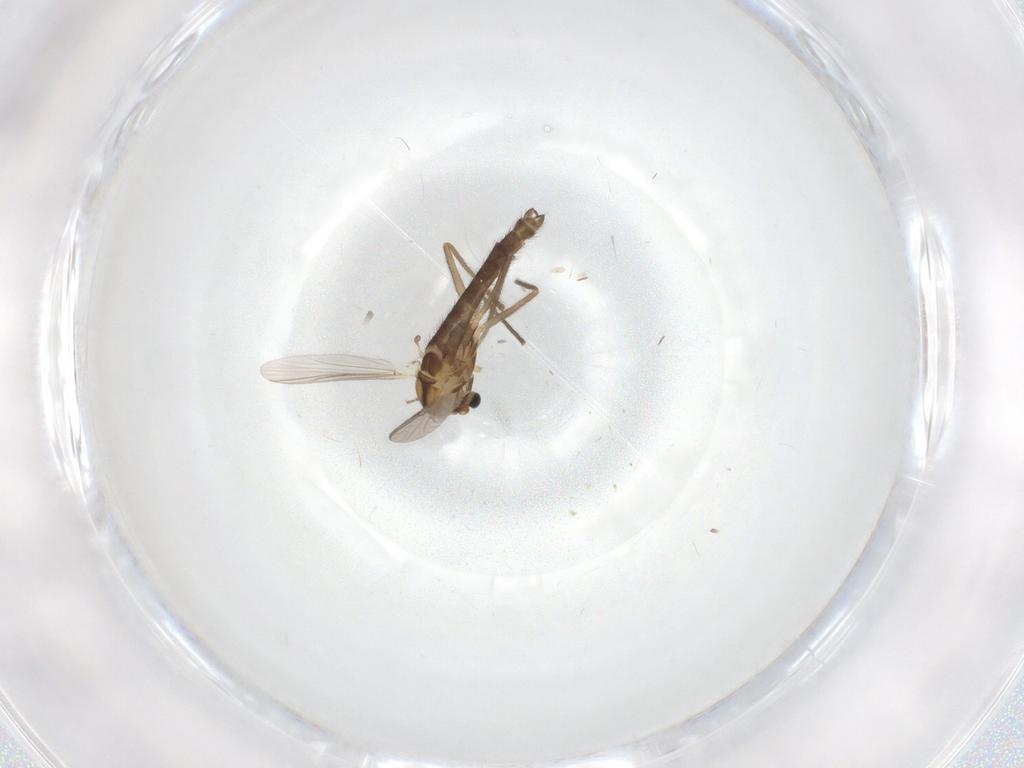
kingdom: Animalia
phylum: Arthropoda
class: Insecta
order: Diptera
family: Chironomidae
